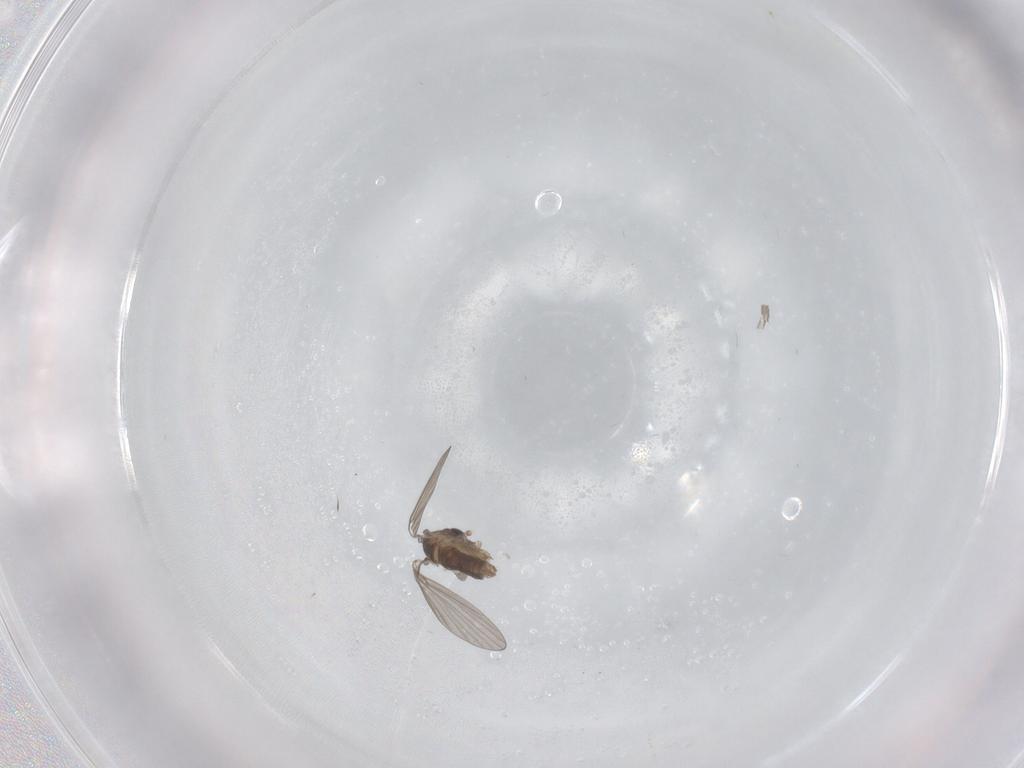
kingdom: Animalia
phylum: Arthropoda
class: Insecta
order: Diptera
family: Cecidomyiidae
